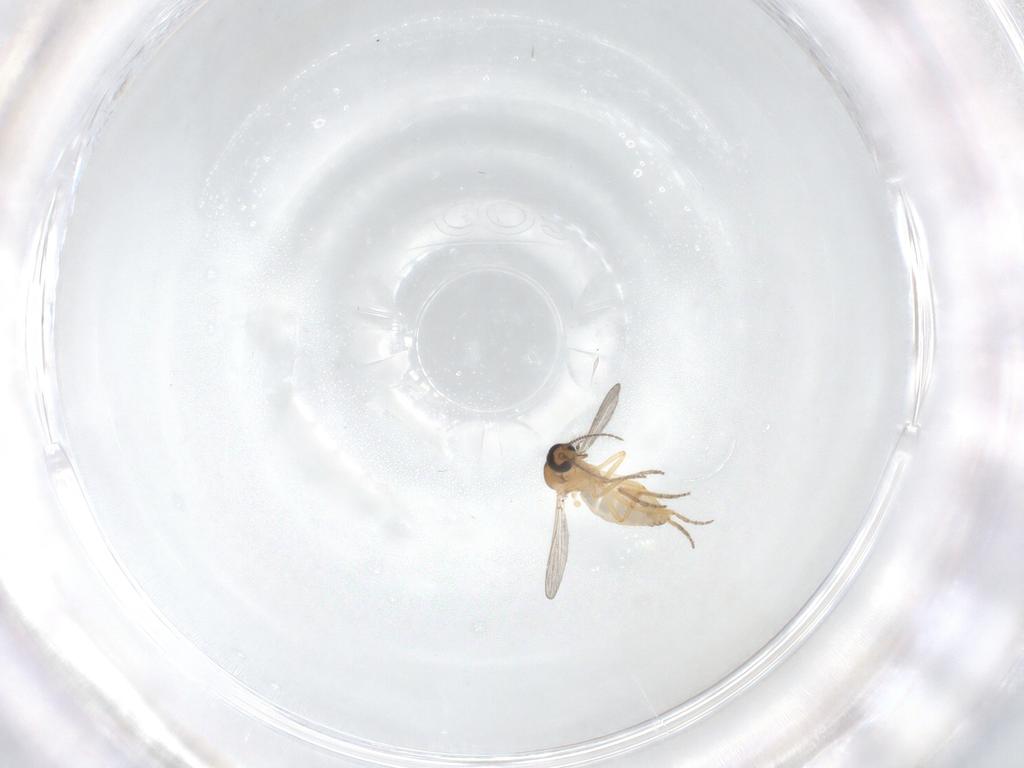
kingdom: Animalia
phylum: Arthropoda
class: Insecta
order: Diptera
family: Ceratopogonidae
